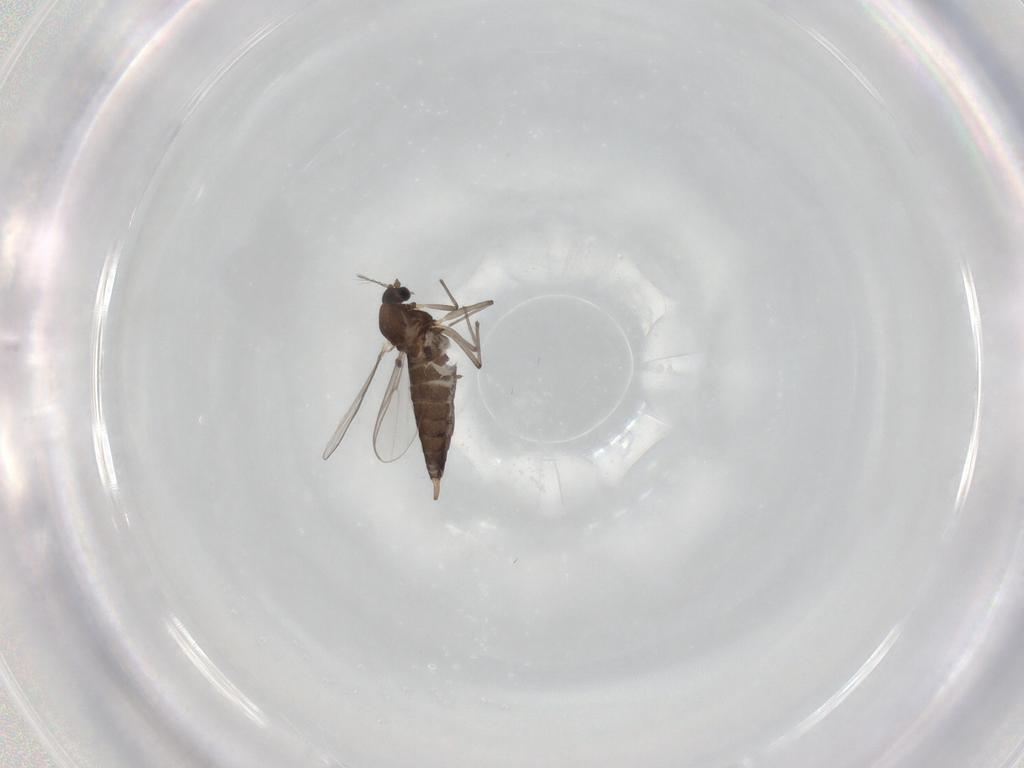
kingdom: Animalia
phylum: Arthropoda
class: Insecta
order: Diptera
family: Chironomidae
